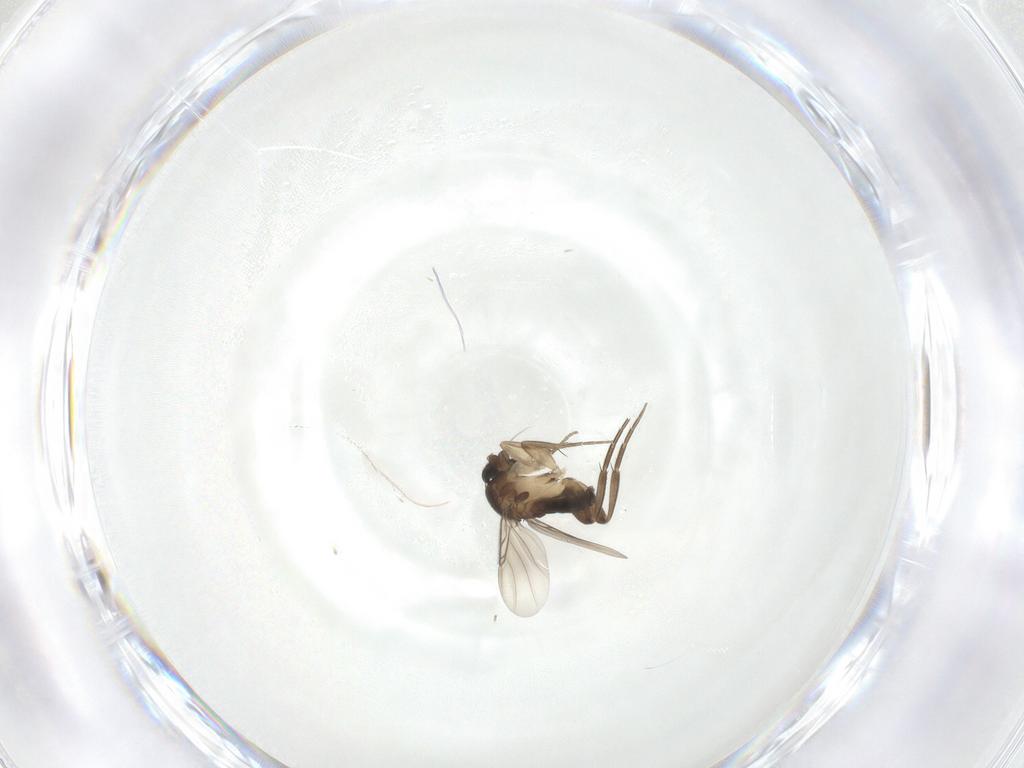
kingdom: Animalia
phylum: Arthropoda
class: Insecta
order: Diptera
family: Phoridae
